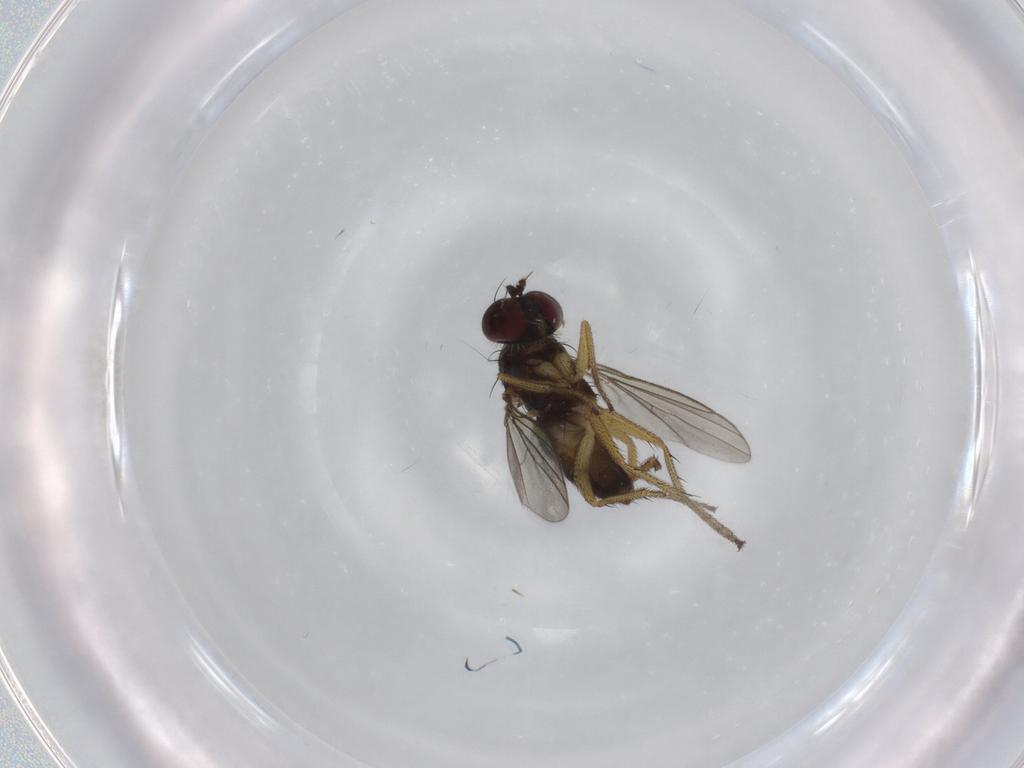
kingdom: Animalia
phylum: Arthropoda
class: Insecta
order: Diptera
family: Dolichopodidae
